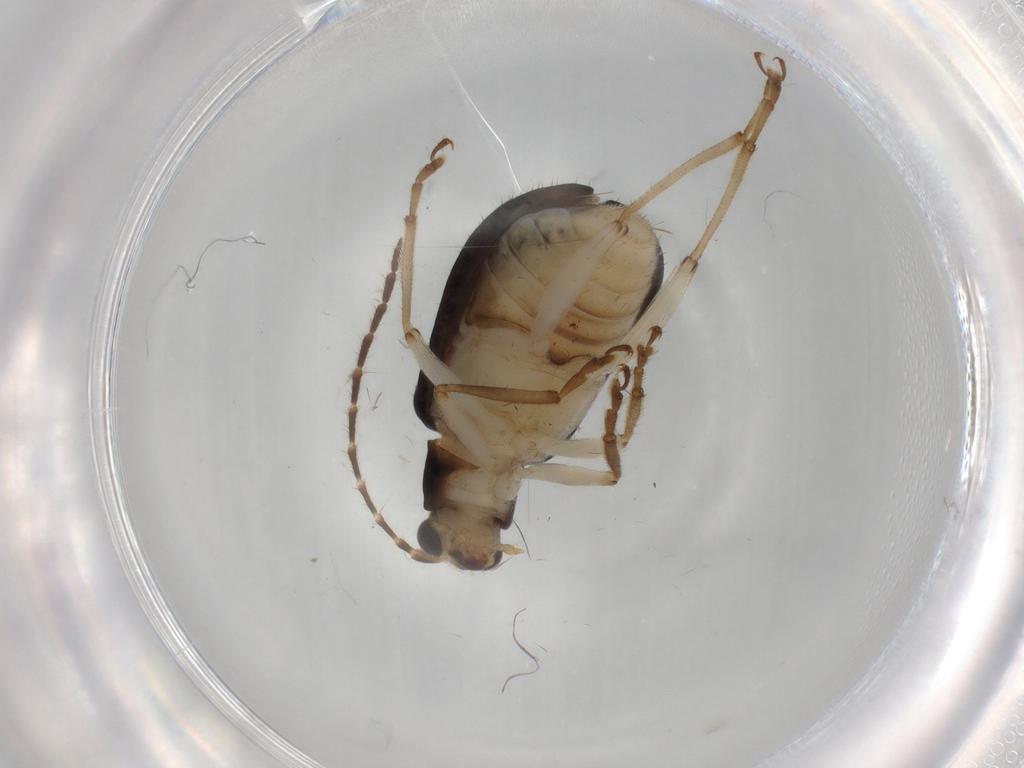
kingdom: Animalia
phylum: Arthropoda
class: Insecta
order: Coleoptera
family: Chrysomelidae
